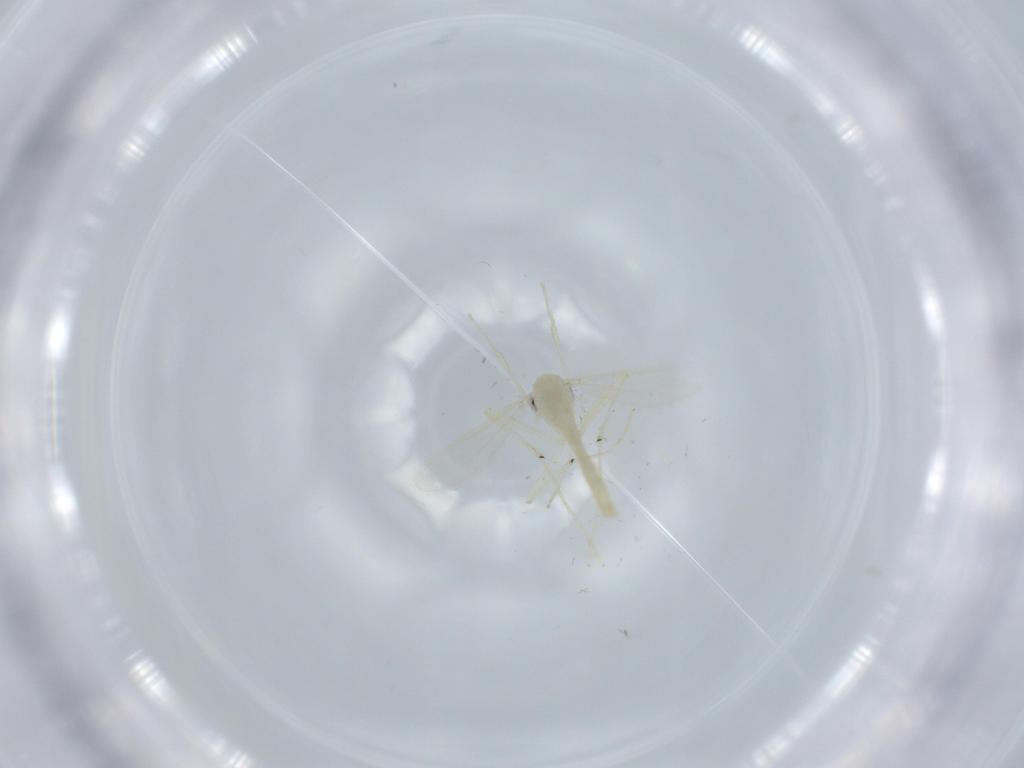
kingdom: Animalia
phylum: Arthropoda
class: Insecta
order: Diptera
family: Chironomidae
